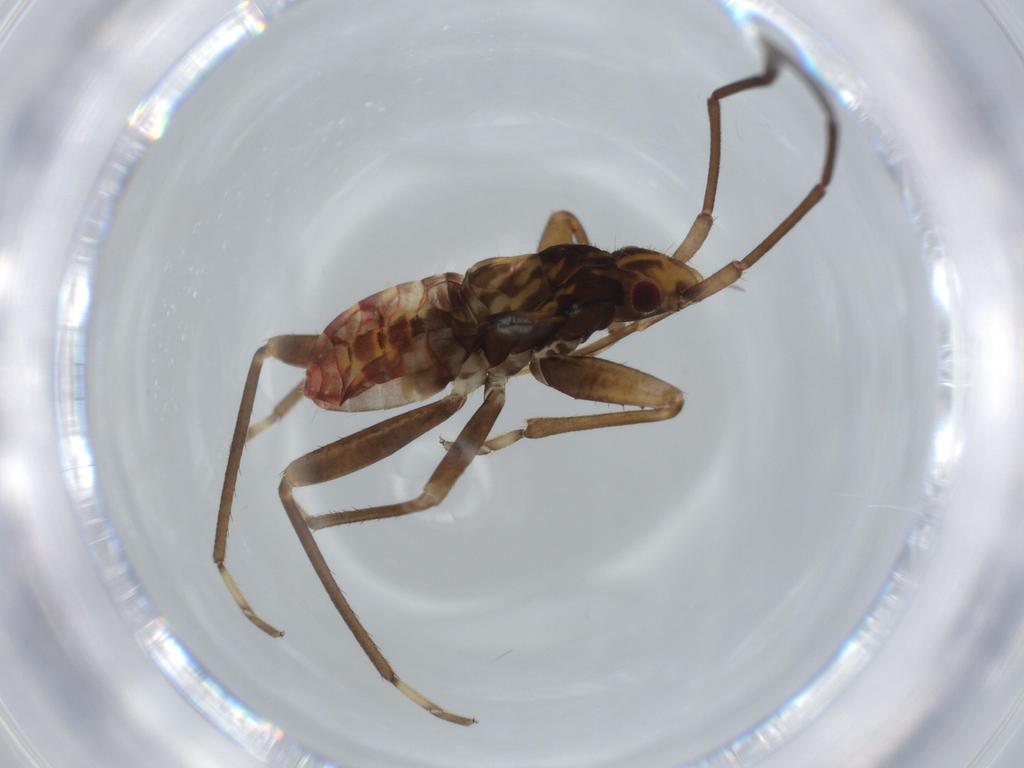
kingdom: Animalia
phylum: Arthropoda
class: Insecta
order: Hemiptera
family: Rhyparochromidae
